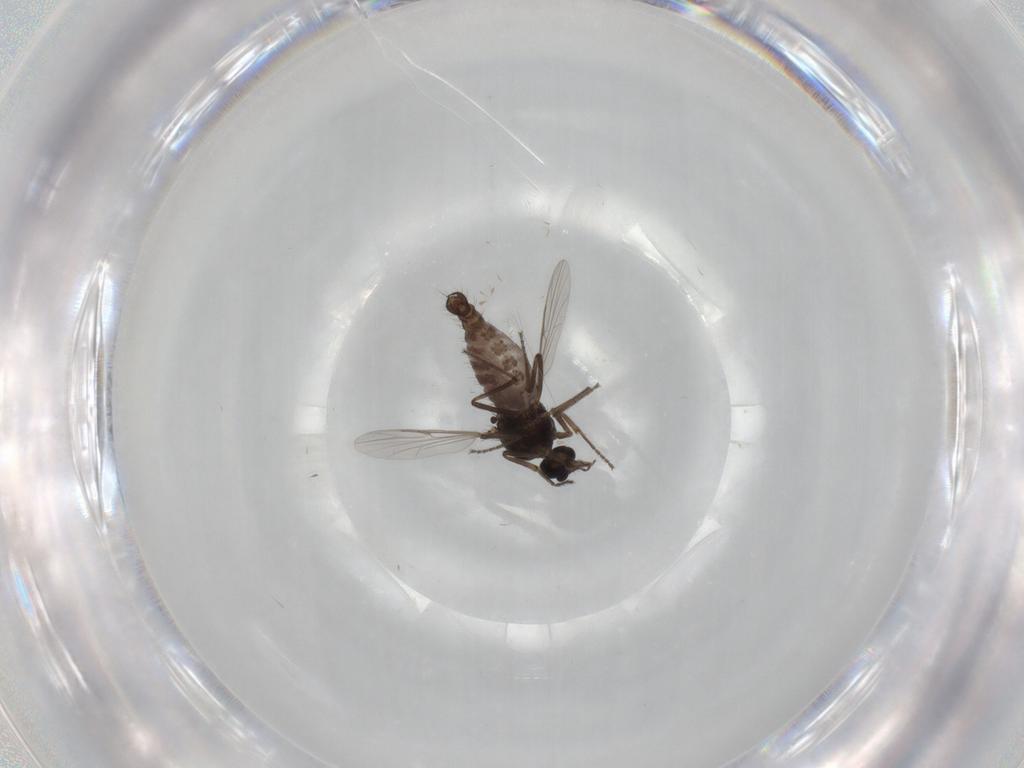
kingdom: Animalia
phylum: Arthropoda
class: Insecta
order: Diptera
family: Ceratopogonidae
